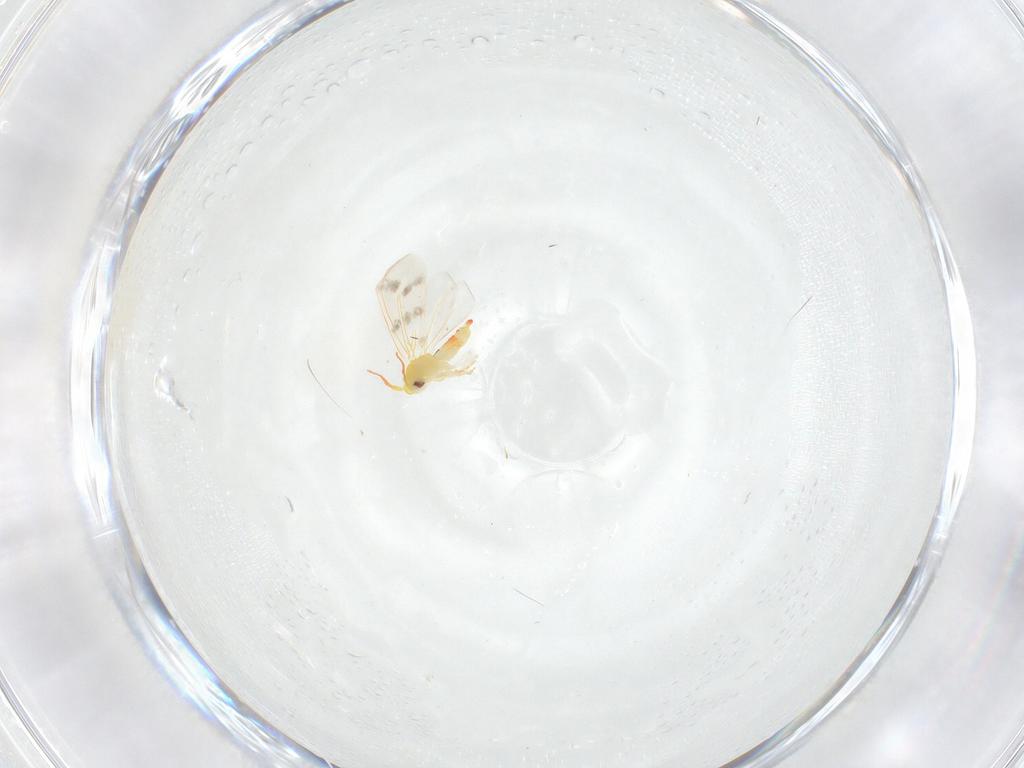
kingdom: Animalia
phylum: Arthropoda
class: Insecta
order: Hemiptera
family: Aleyrodidae
